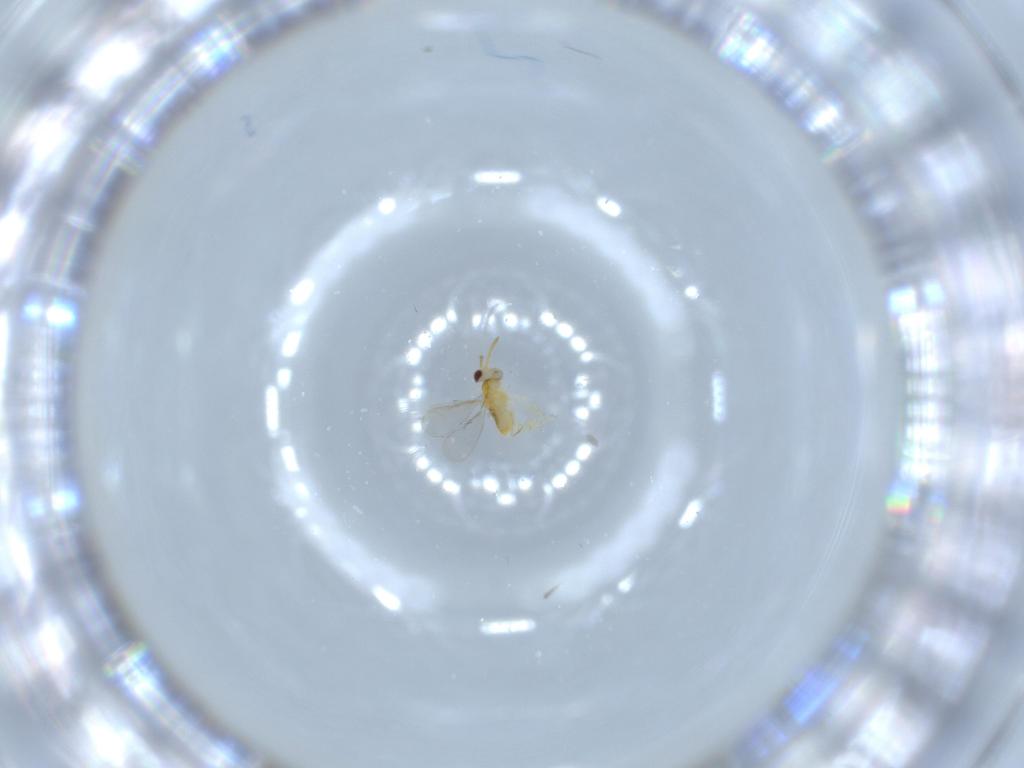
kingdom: Animalia
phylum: Arthropoda
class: Insecta
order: Hymenoptera
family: Aphelinidae
